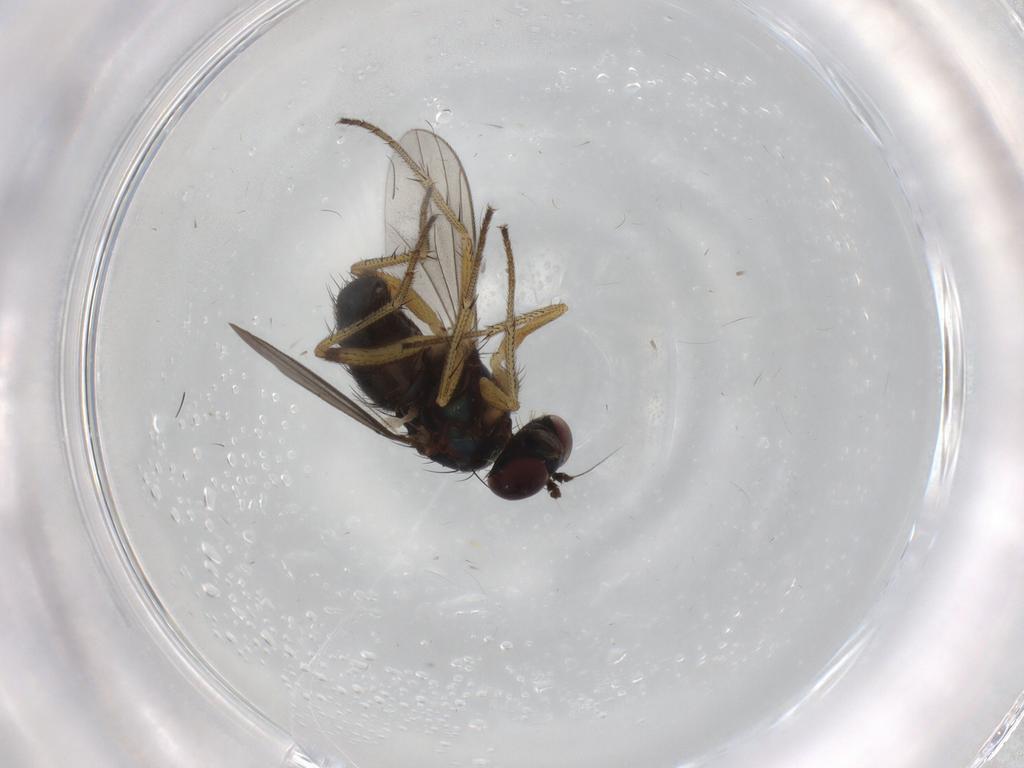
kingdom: Animalia
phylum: Arthropoda
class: Insecta
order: Diptera
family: Dolichopodidae
